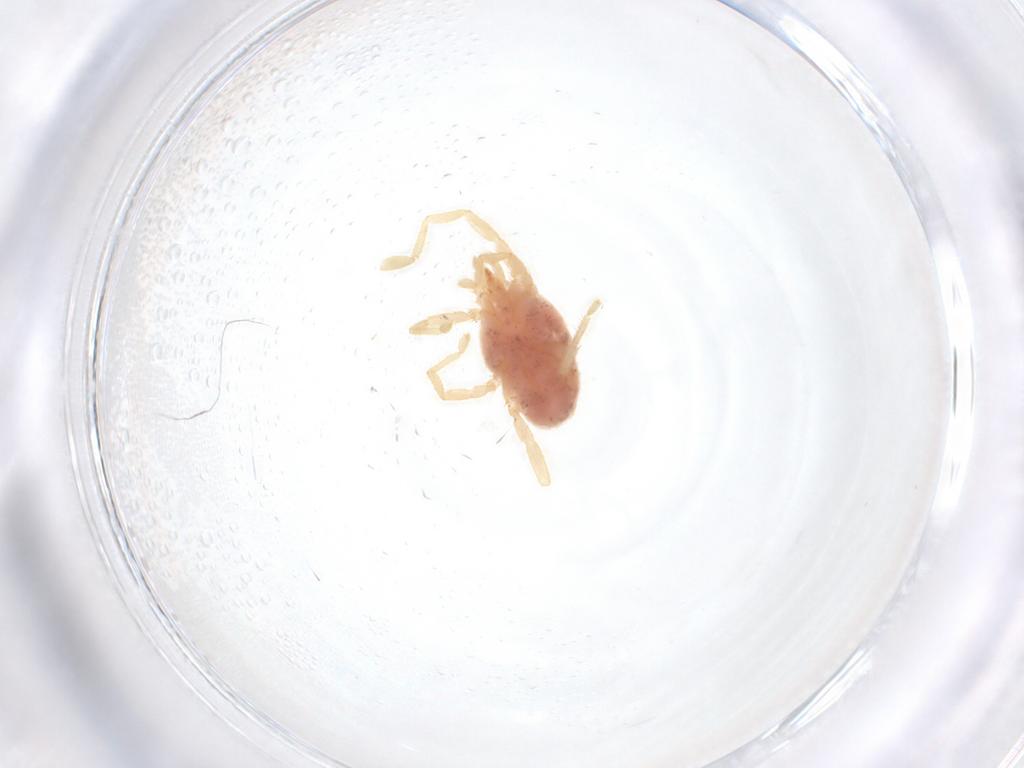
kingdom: Animalia
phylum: Arthropoda
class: Arachnida
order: Trombidiformes
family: Erythraeidae
